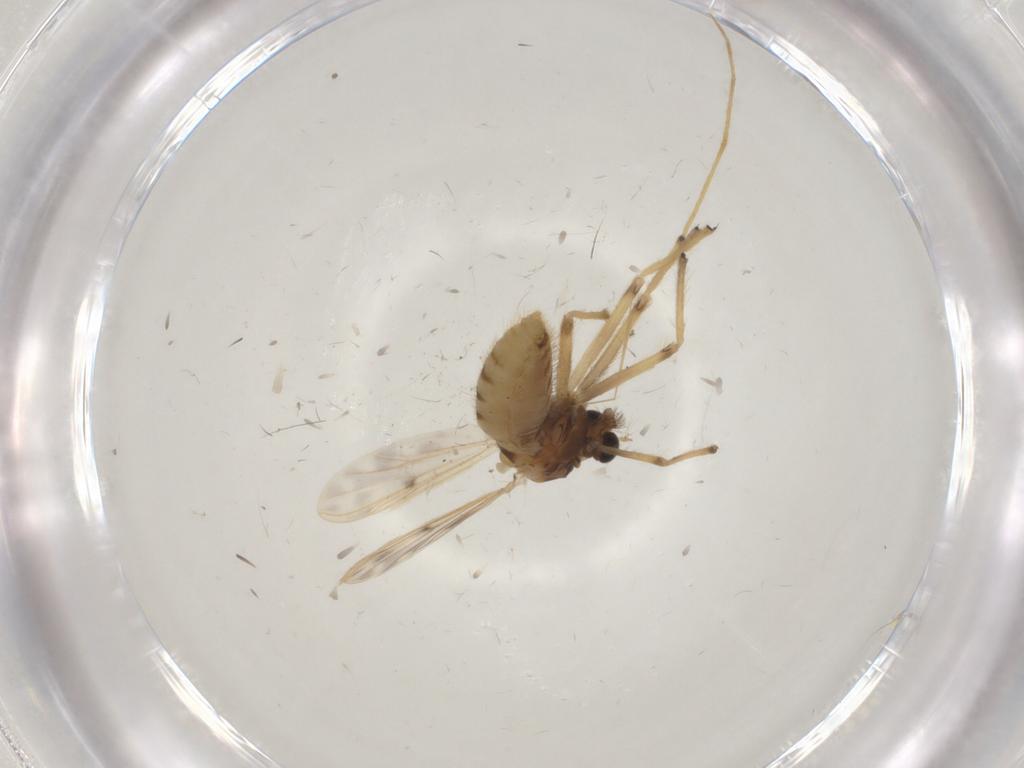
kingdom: Animalia
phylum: Arthropoda
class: Insecta
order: Diptera
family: Chironomidae
